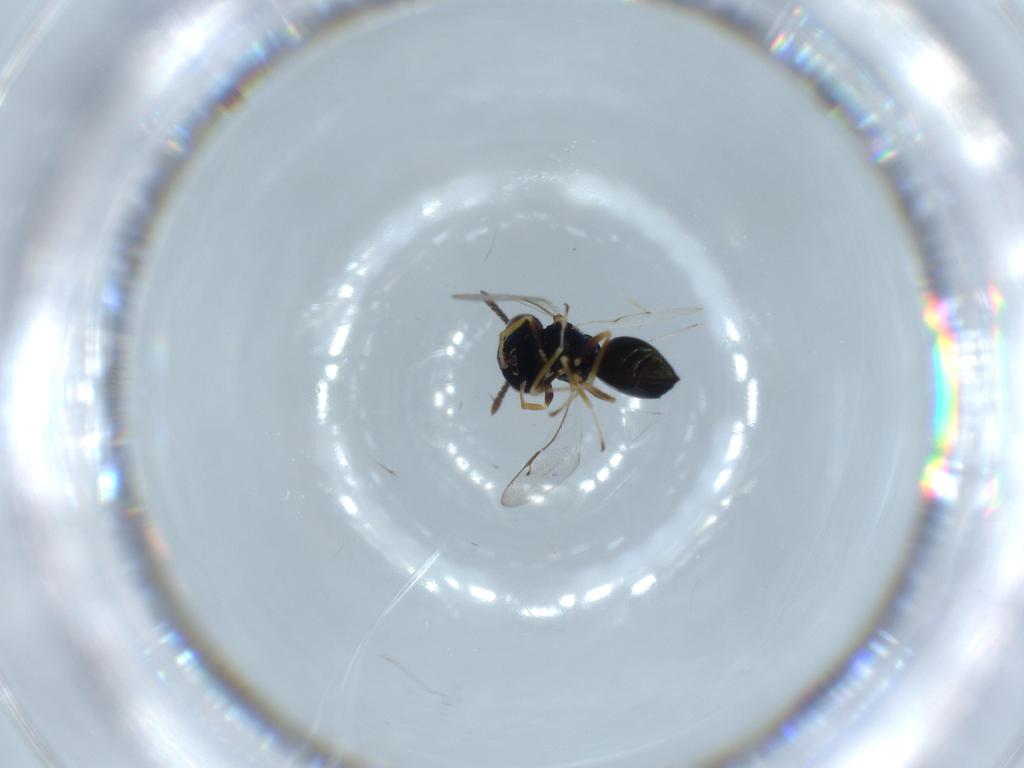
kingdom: Animalia
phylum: Arthropoda
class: Insecta
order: Hymenoptera
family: Pteromalidae
